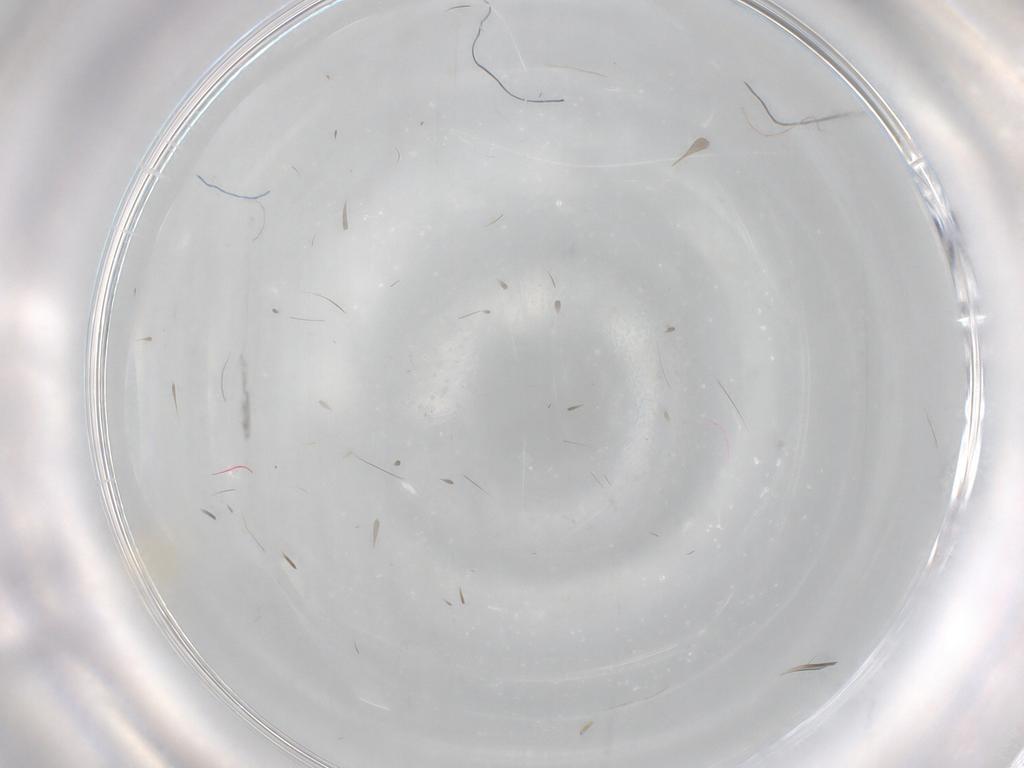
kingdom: Animalia
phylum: Arthropoda
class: Arachnida
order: Trombidiformes
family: Erythraeidae
